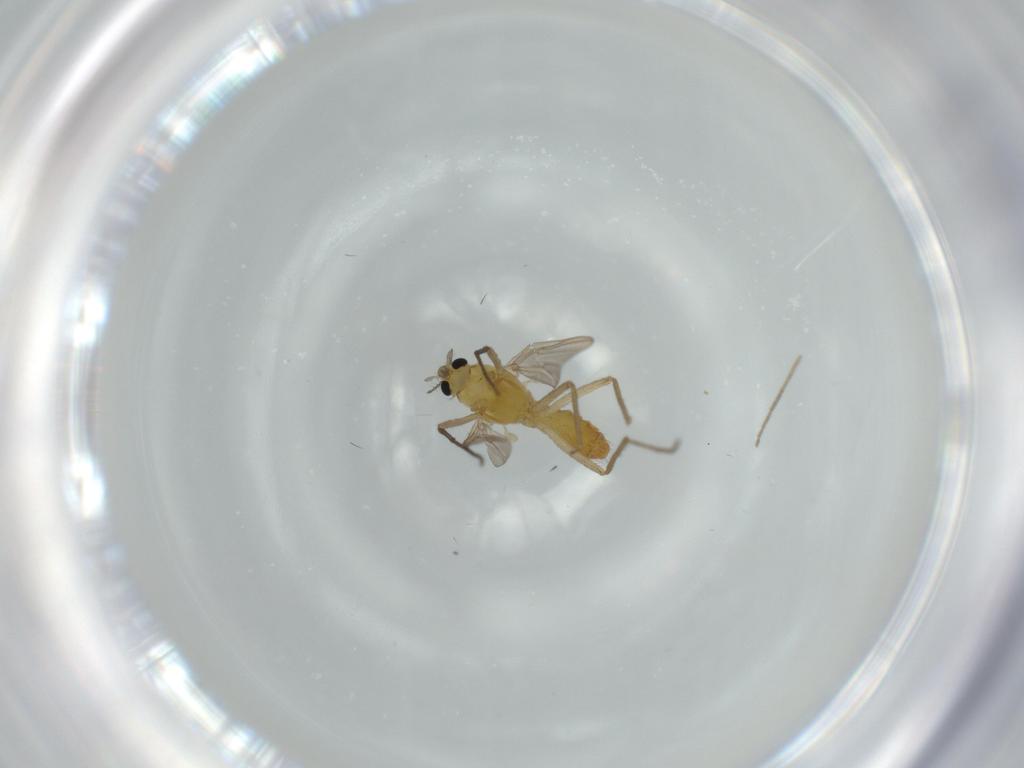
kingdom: Animalia
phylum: Arthropoda
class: Insecta
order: Diptera
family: Chironomidae
